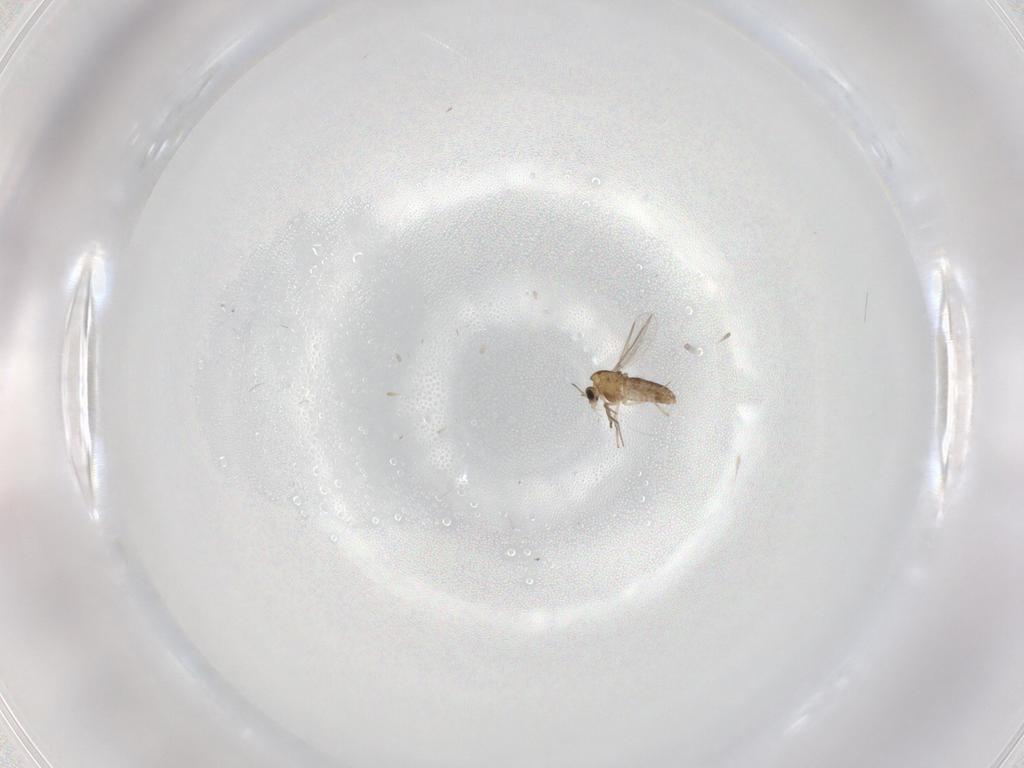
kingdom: Animalia
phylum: Arthropoda
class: Insecta
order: Diptera
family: Chironomidae
